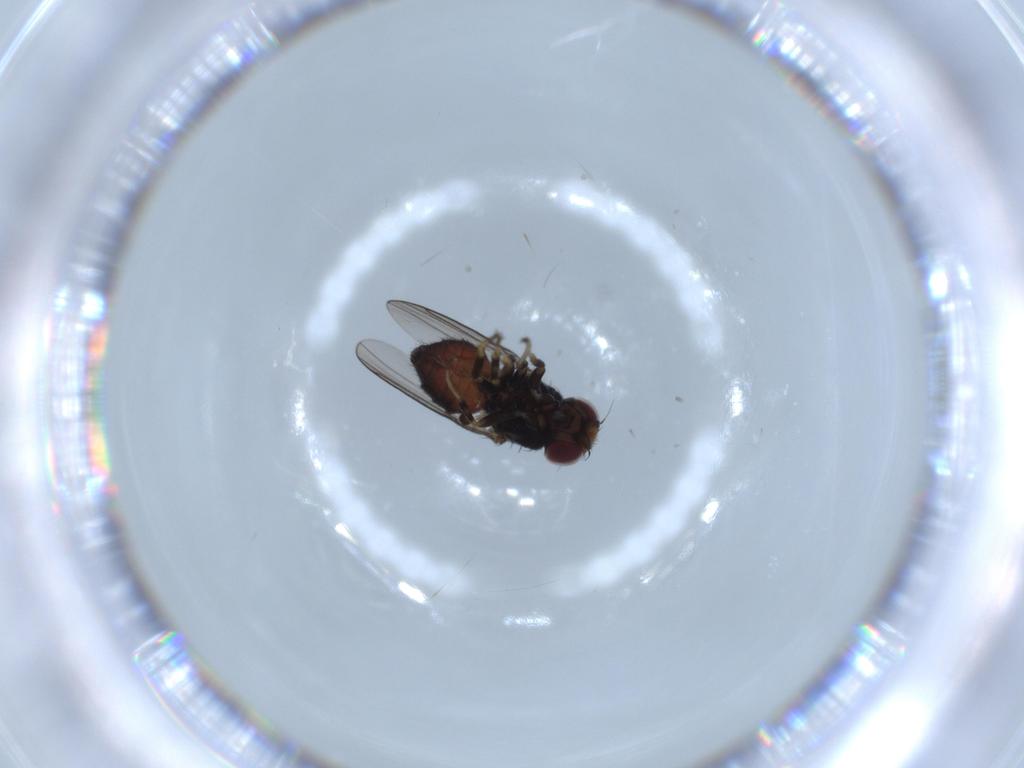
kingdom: Animalia
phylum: Arthropoda
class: Insecta
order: Diptera
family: Chloropidae
